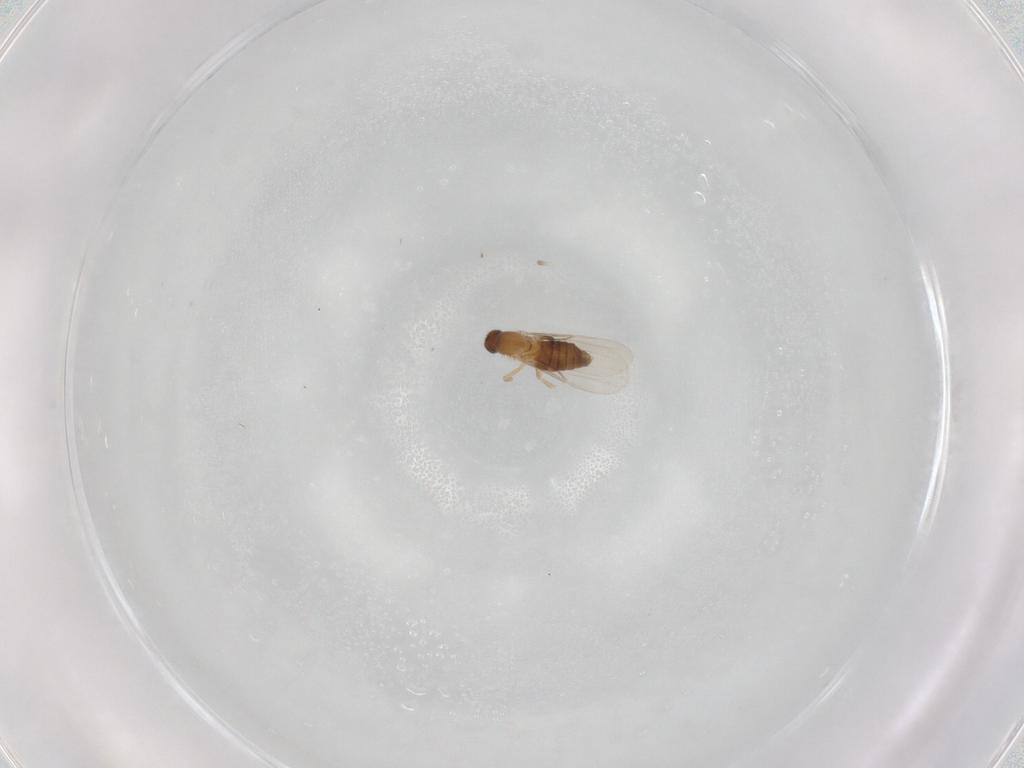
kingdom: Animalia
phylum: Arthropoda
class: Insecta
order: Diptera
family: Phoridae
